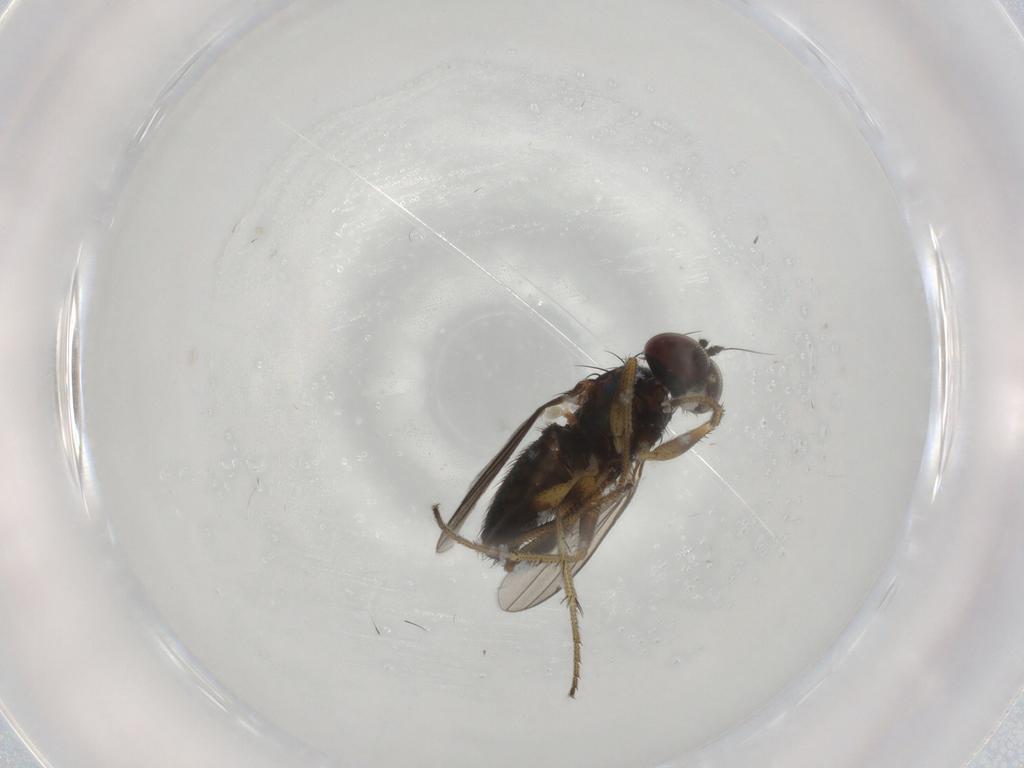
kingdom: Animalia
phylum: Arthropoda
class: Insecta
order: Diptera
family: Dolichopodidae
